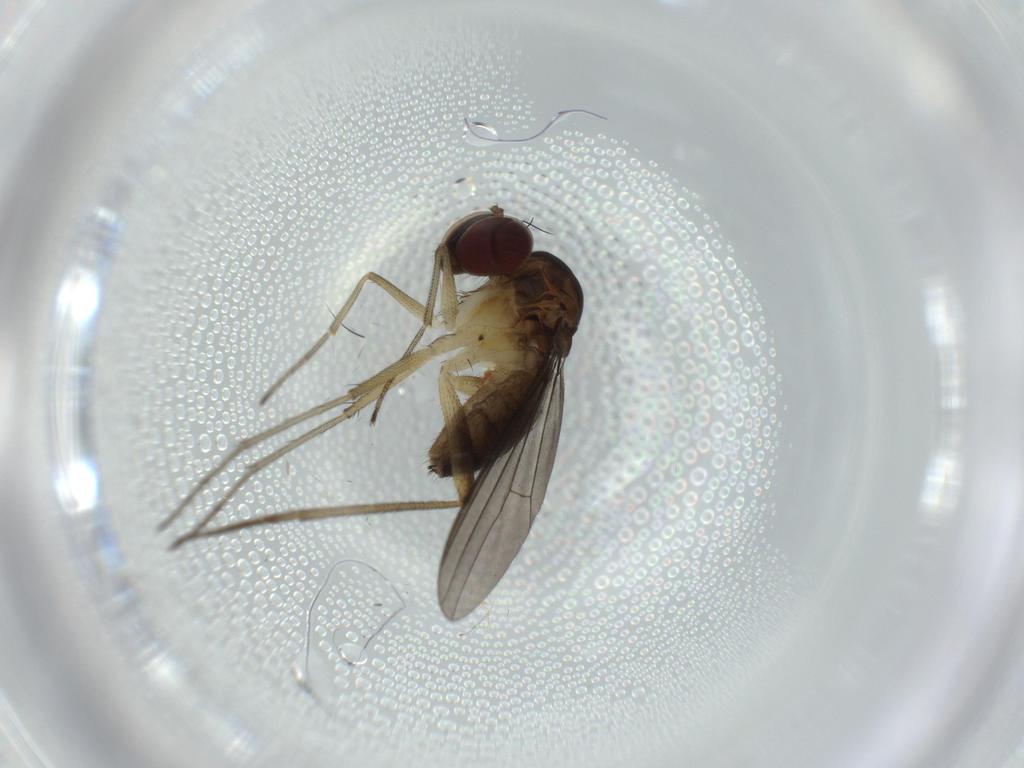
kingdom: Animalia
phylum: Arthropoda
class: Insecta
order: Diptera
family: Dolichopodidae
